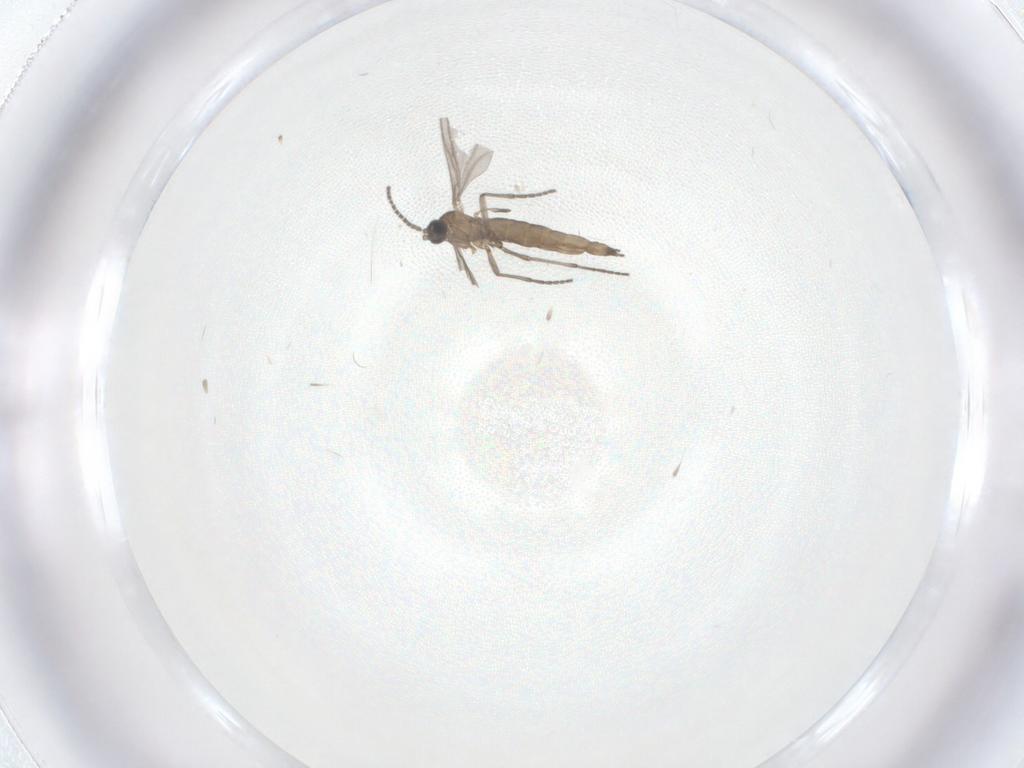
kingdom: Animalia
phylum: Arthropoda
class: Insecta
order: Diptera
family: Sciaridae
